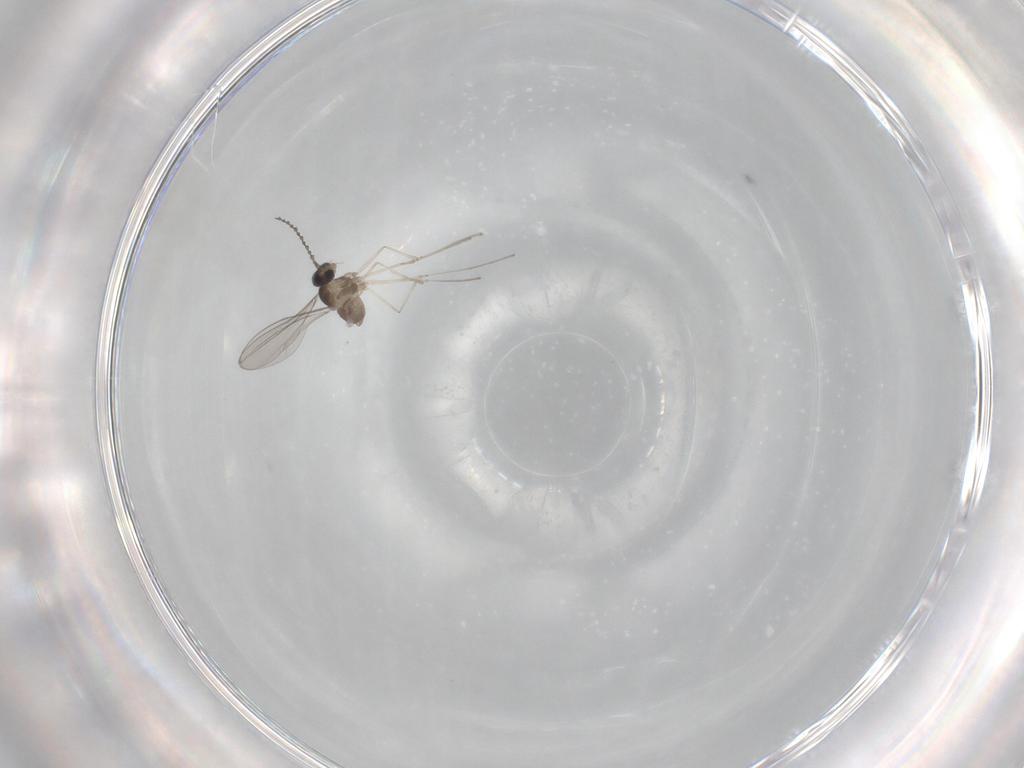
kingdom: Animalia
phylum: Arthropoda
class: Insecta
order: Diptera
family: Cecidomyiidae
